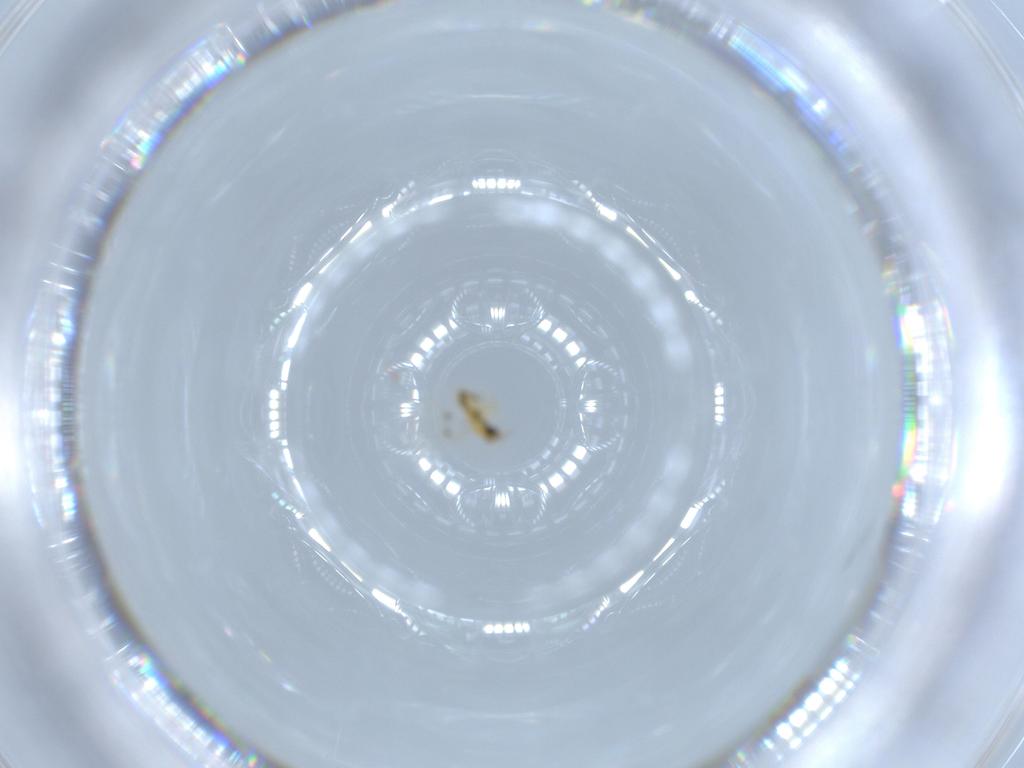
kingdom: Animalia
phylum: Arthropoda
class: Insecta
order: Hymenoptera
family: Trichogrammatidae
